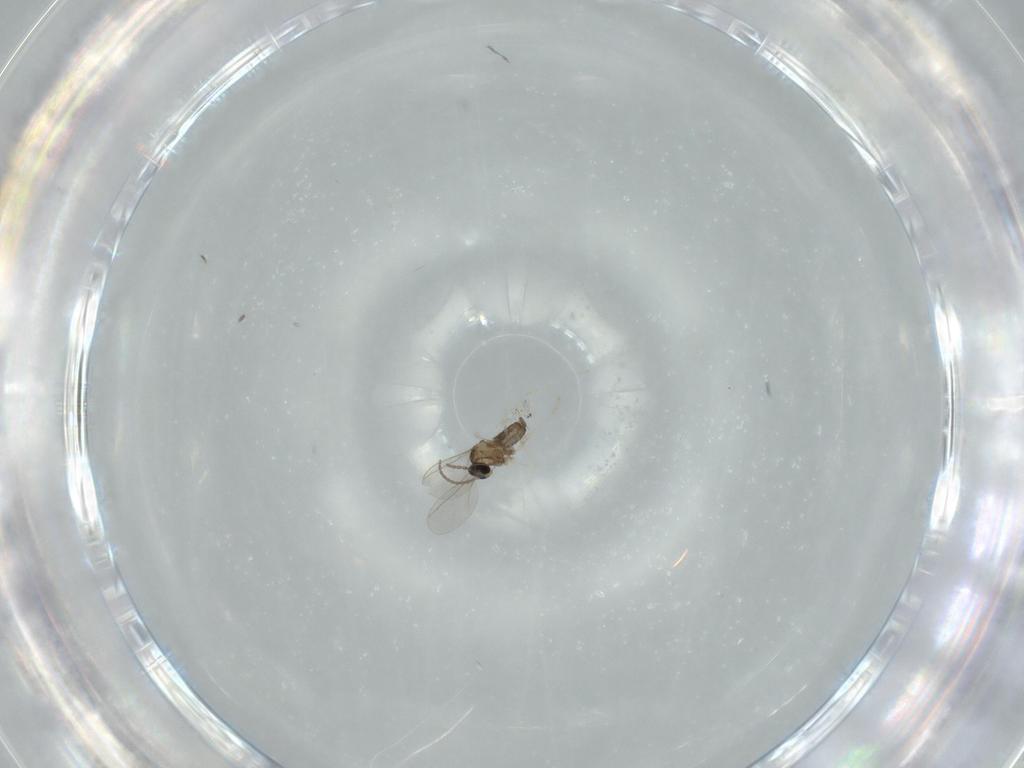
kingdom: Animalia
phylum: Arthropoda
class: Insecta
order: Diptera
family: Cecidomyiidae
